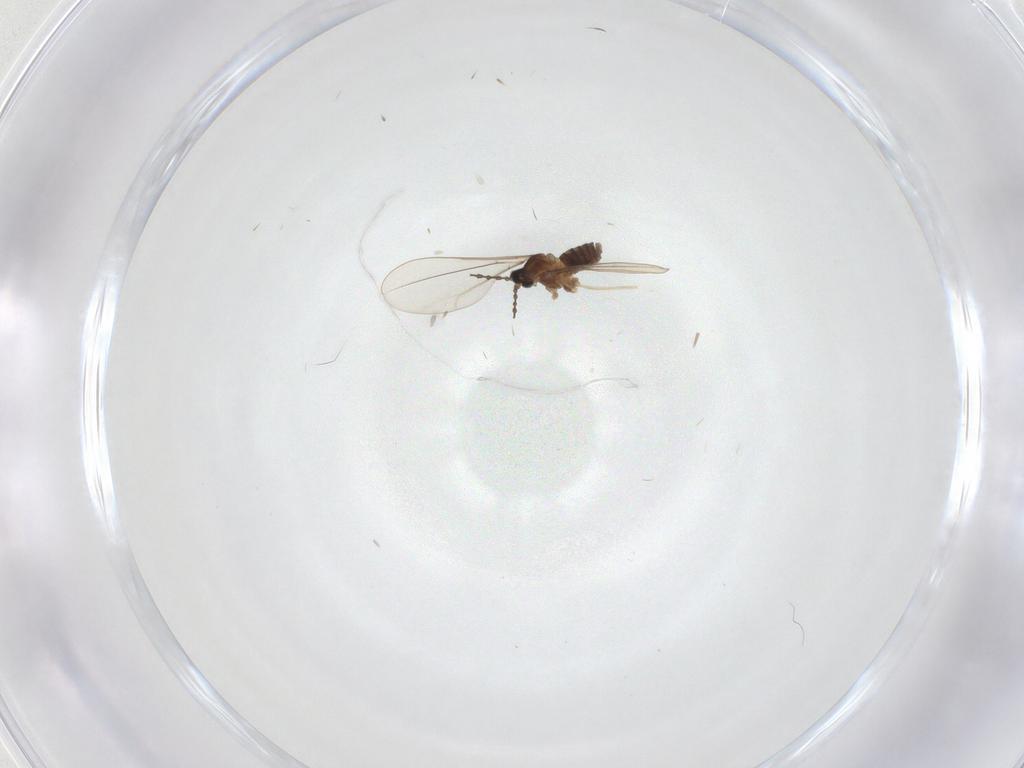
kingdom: Animalia
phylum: Arthropoda
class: Insecta
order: Diptera
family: Cecidomyiidae
